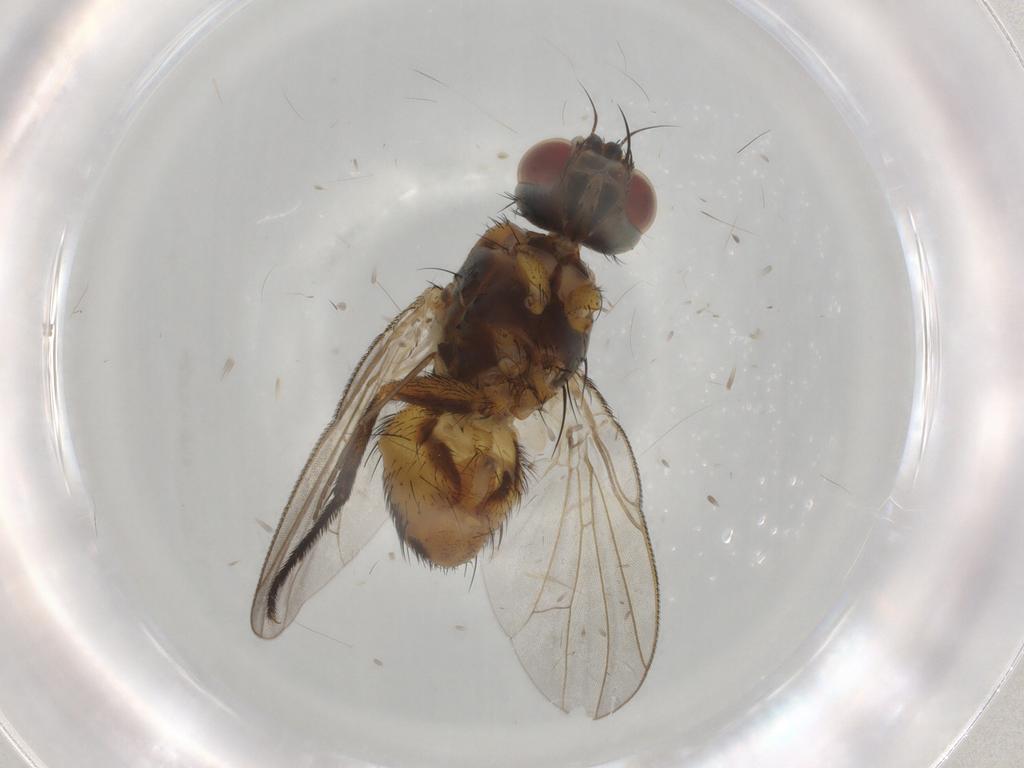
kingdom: Animalia
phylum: Arthropoda
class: Insecta
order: Diptera
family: Muscidae
